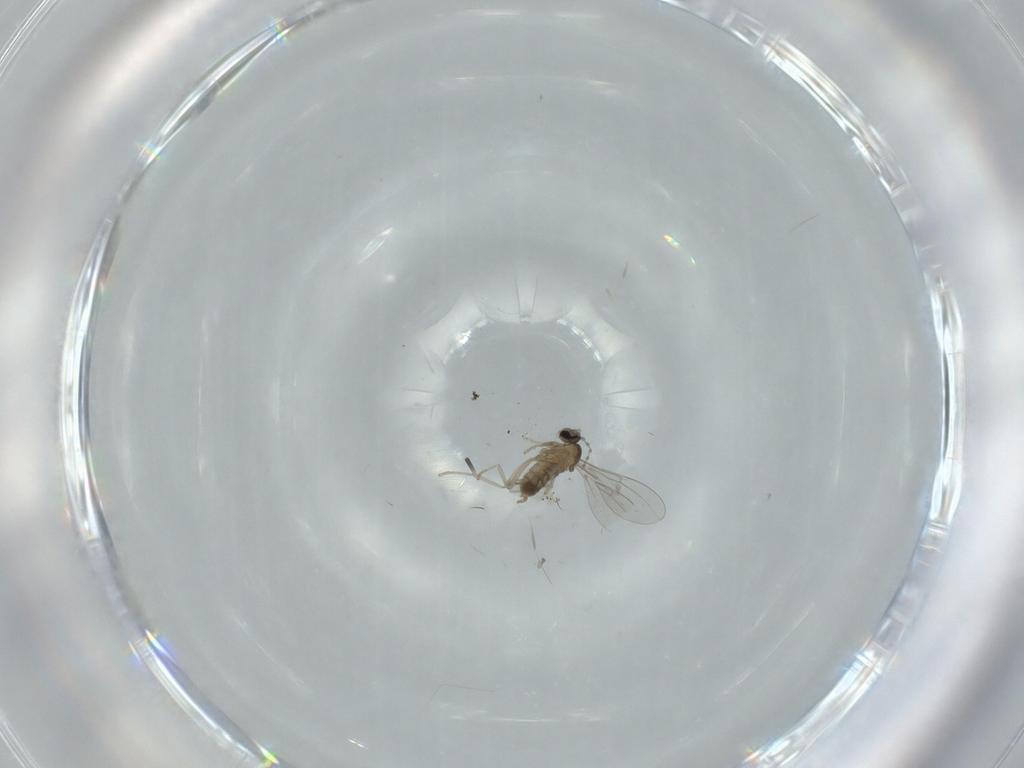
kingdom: Animalia
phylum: Arthropoda
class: Insecta
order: Diptera
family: Cecidomyiidae
